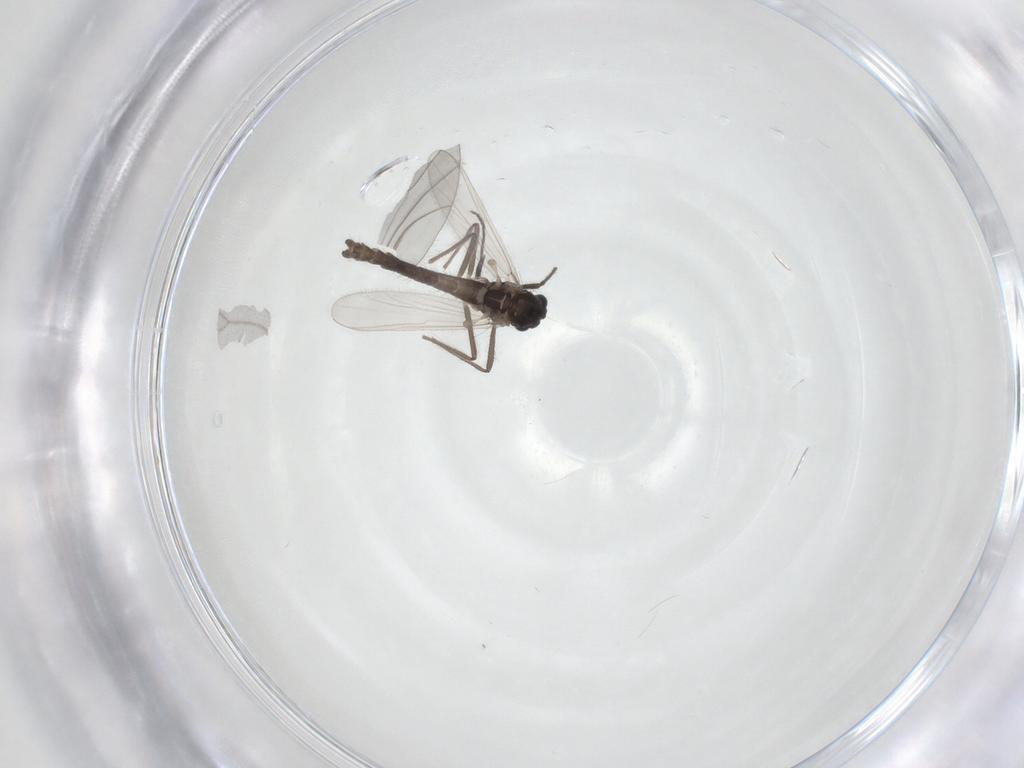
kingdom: Animalia
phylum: Arthropoda
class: Insecta
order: Diptera
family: Chironomidae
